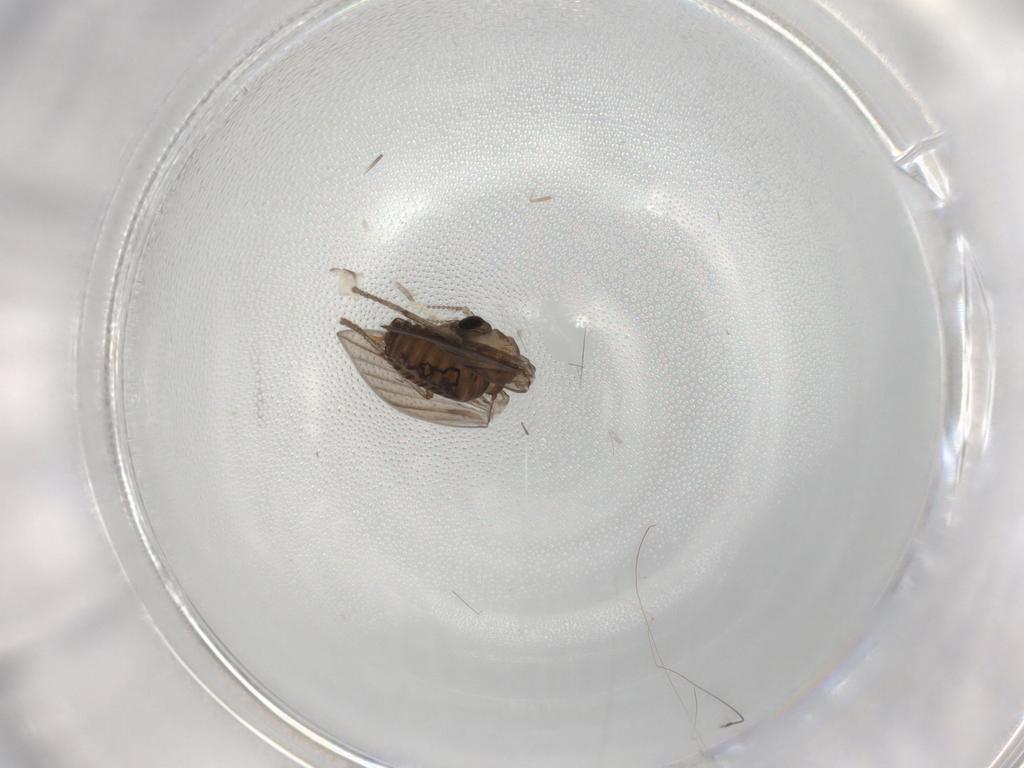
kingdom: Animalia
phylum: Arthropoda
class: Insecta
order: Diptera
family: Psychodidae
